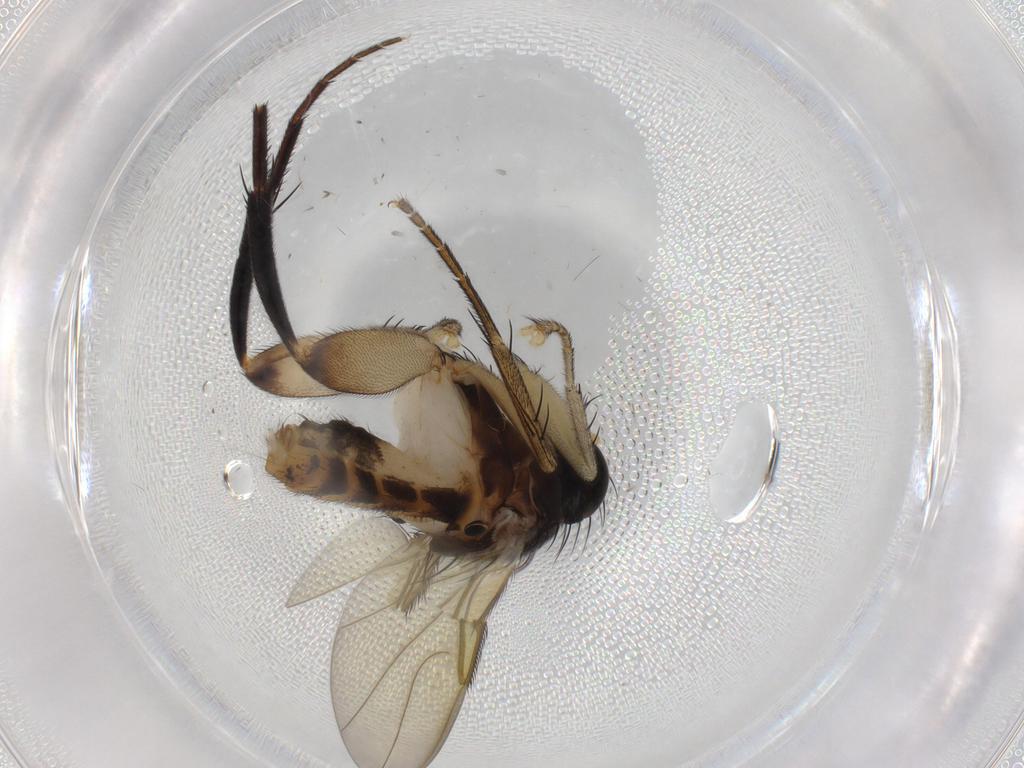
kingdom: Animalia
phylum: Arthropoda
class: Insecta
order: Diptera
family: Phoridae
